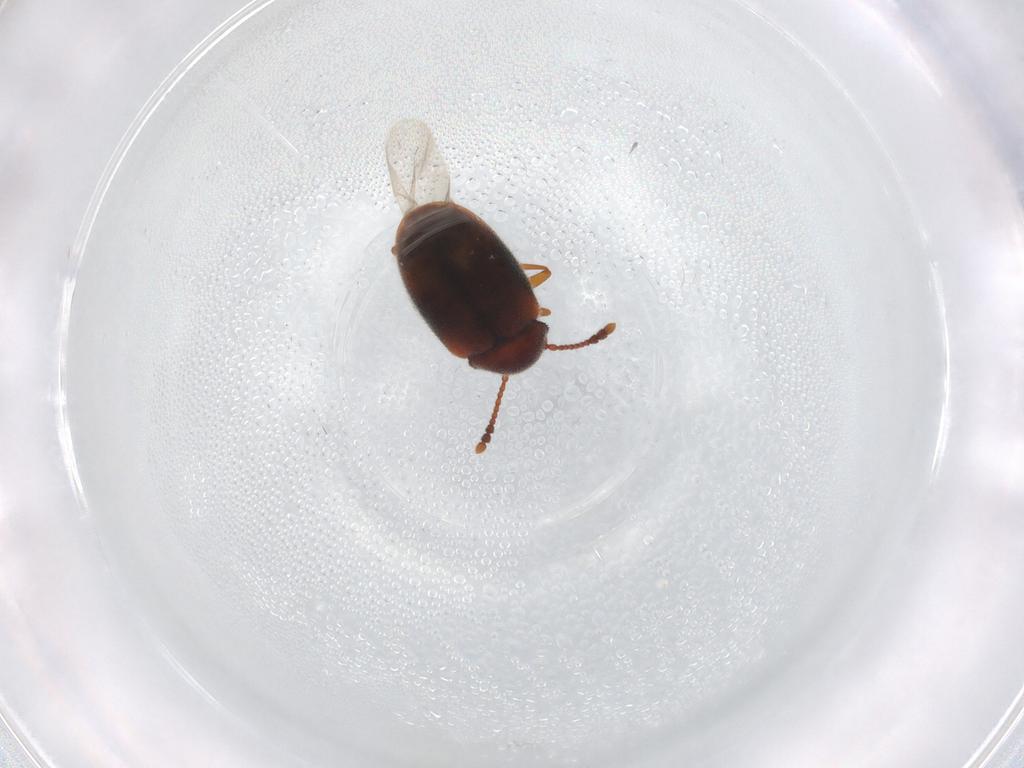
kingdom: Animalia
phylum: Arthropoda
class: Insecta
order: Coleoptera
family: Cryptophagidae
